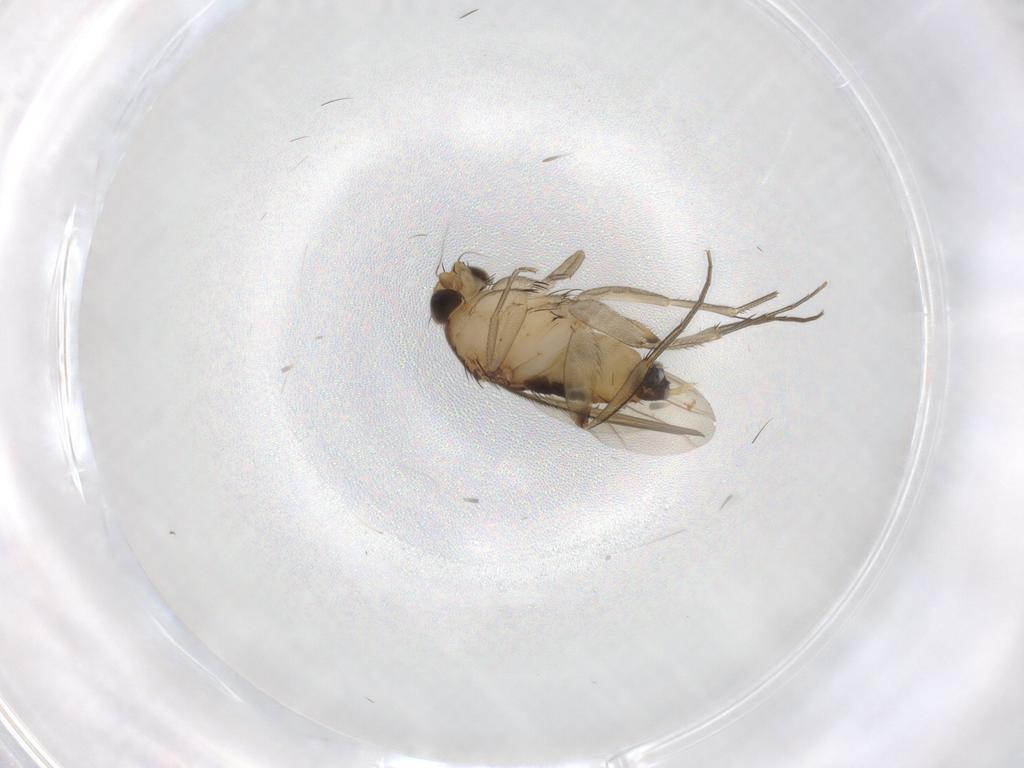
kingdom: Animalia
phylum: Arthropoda
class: Insecta
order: Diptera
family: Phoridae
